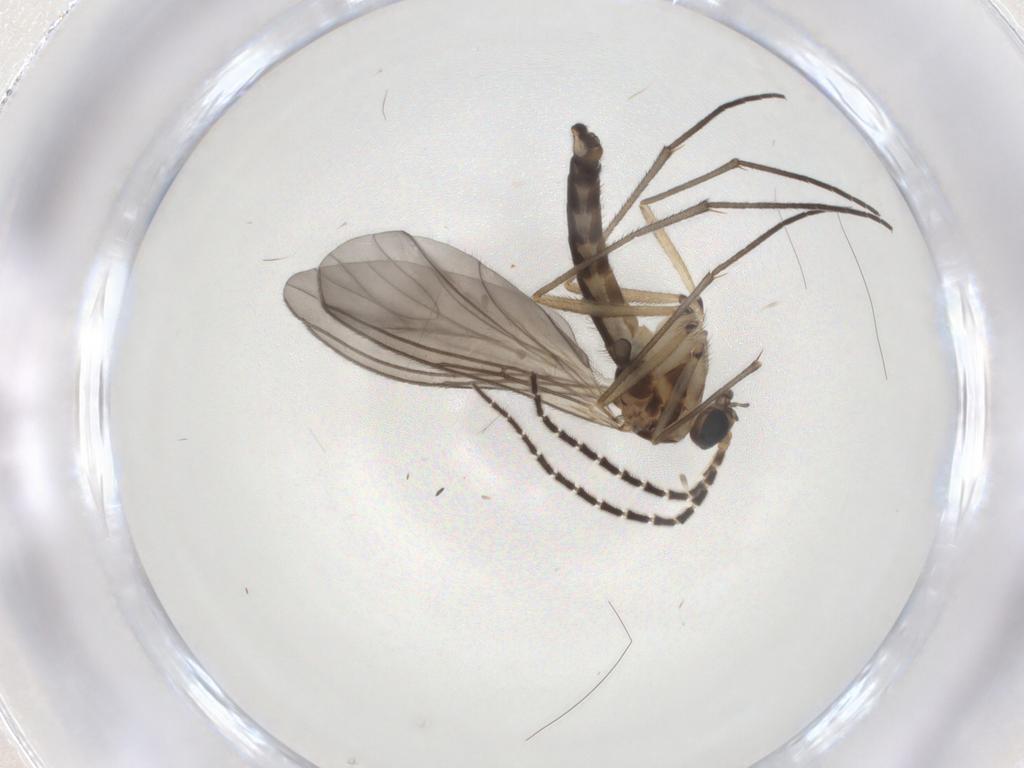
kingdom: Animalia
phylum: Arthropoda
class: Insecta
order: Diptera
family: Sciaridae
